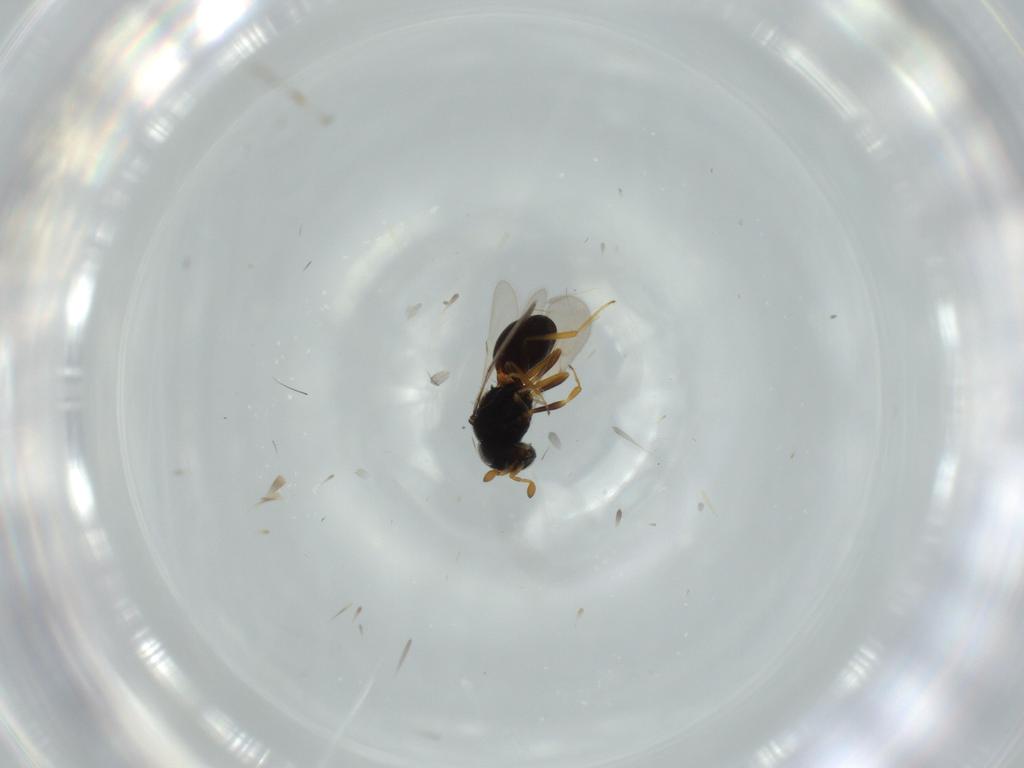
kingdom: Animalia
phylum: Arthropoda
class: Insecta
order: Hymenoptera
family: Scelionidae
